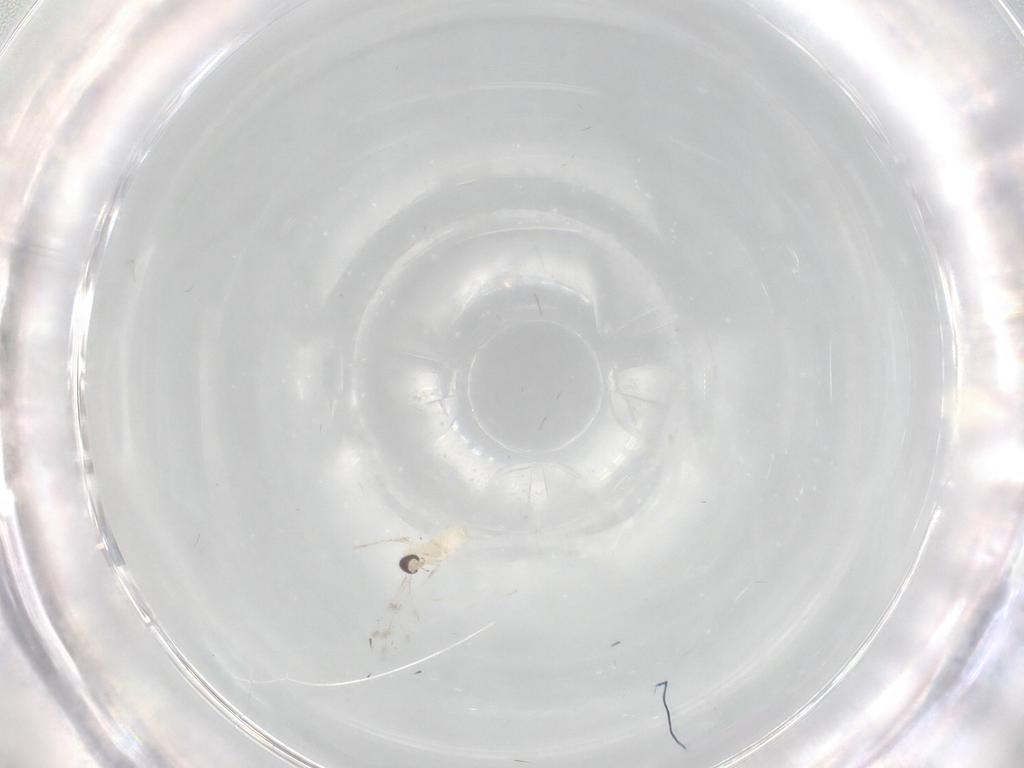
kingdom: Animalia
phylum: Arthropoda
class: Insecta
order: Diptera
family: Cecidomyiidae
